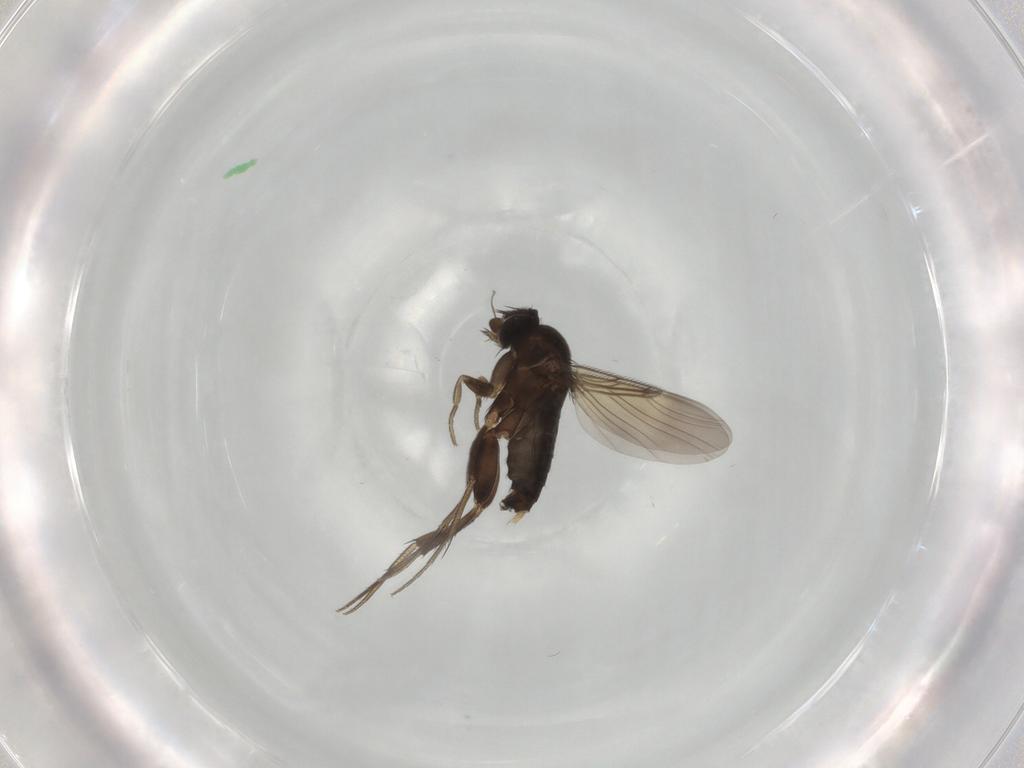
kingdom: Animalia
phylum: Arthropoda
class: Insecta
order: Diptera
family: Phoridae
